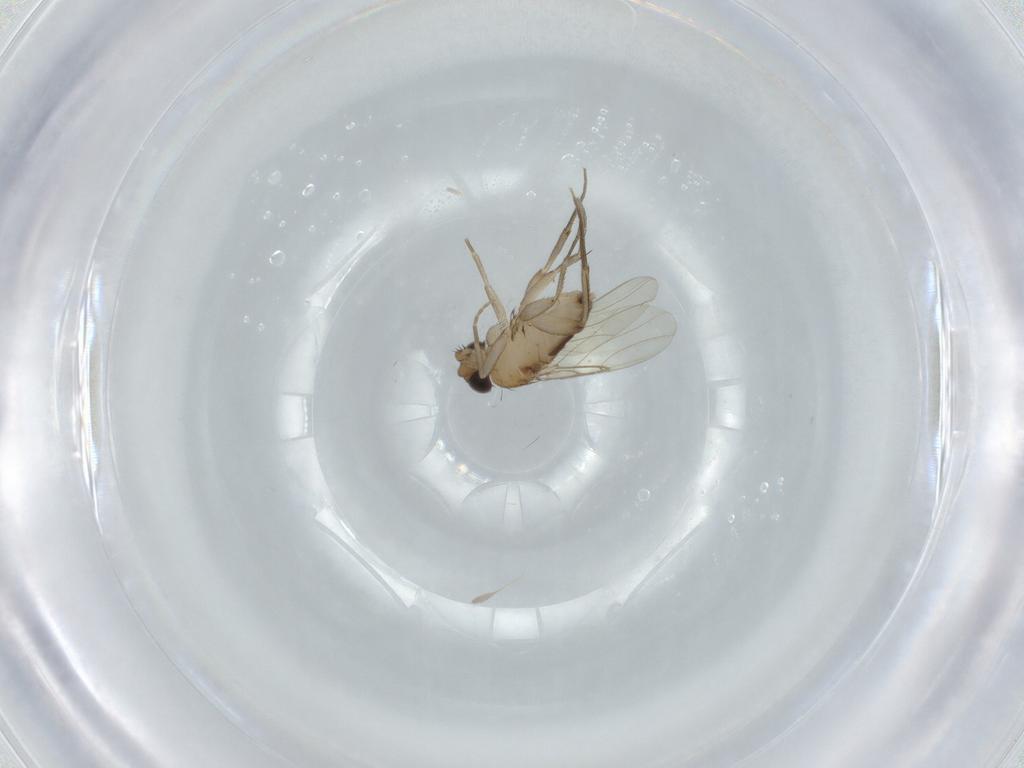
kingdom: Animalia
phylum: Arthropoda
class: Insecta
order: Diptera
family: Phoridae
